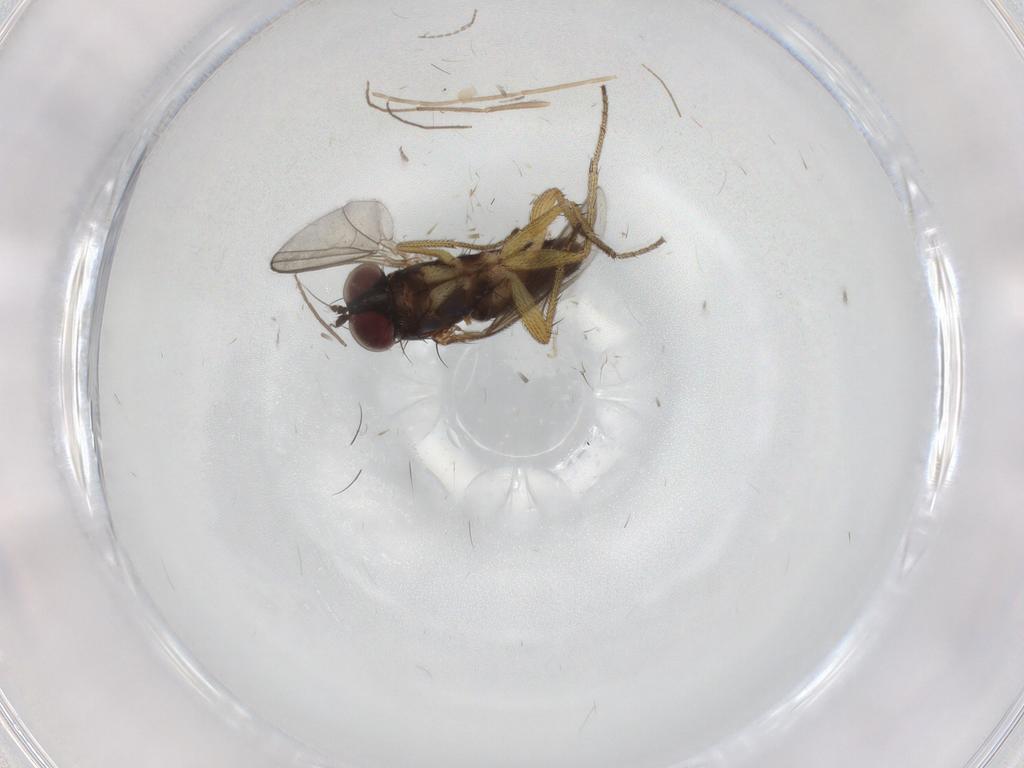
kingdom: Animalia
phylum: Arthropoda
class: Insecta
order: Diptera
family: Chironomidae
